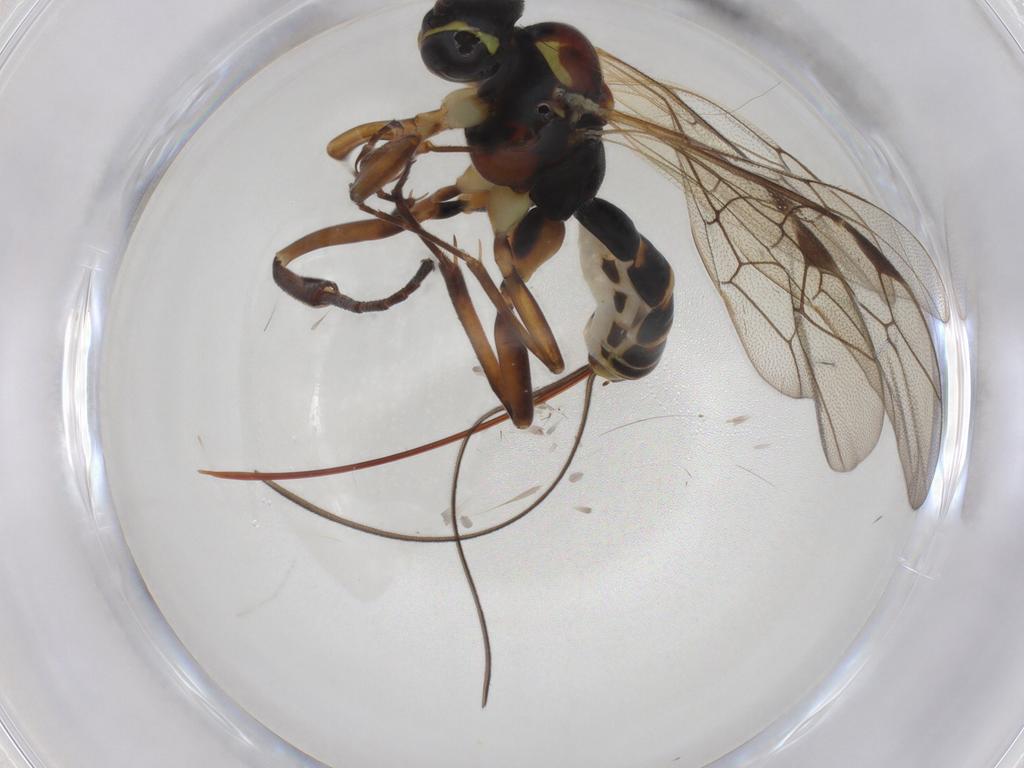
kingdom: Animalia
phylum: Arthropoda
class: Insecta
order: Hymenoptera
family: Ichneumonidae
